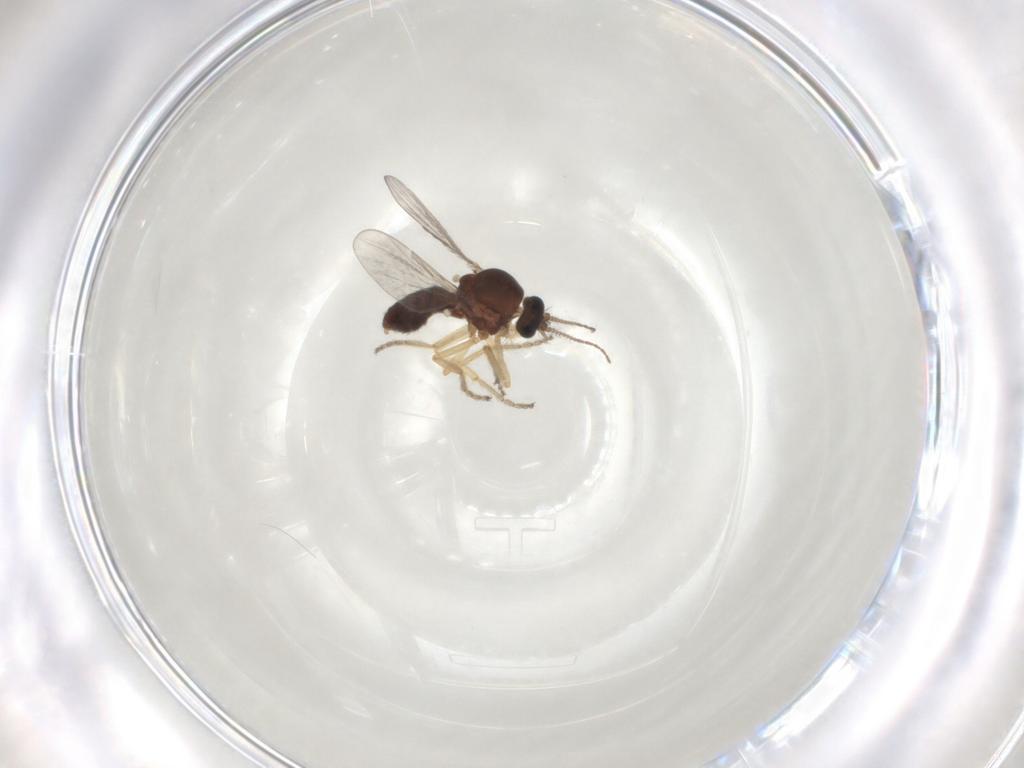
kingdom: Animalia
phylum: Arthropoda
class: Insecta
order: Diptera
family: Ceratopogonidae
